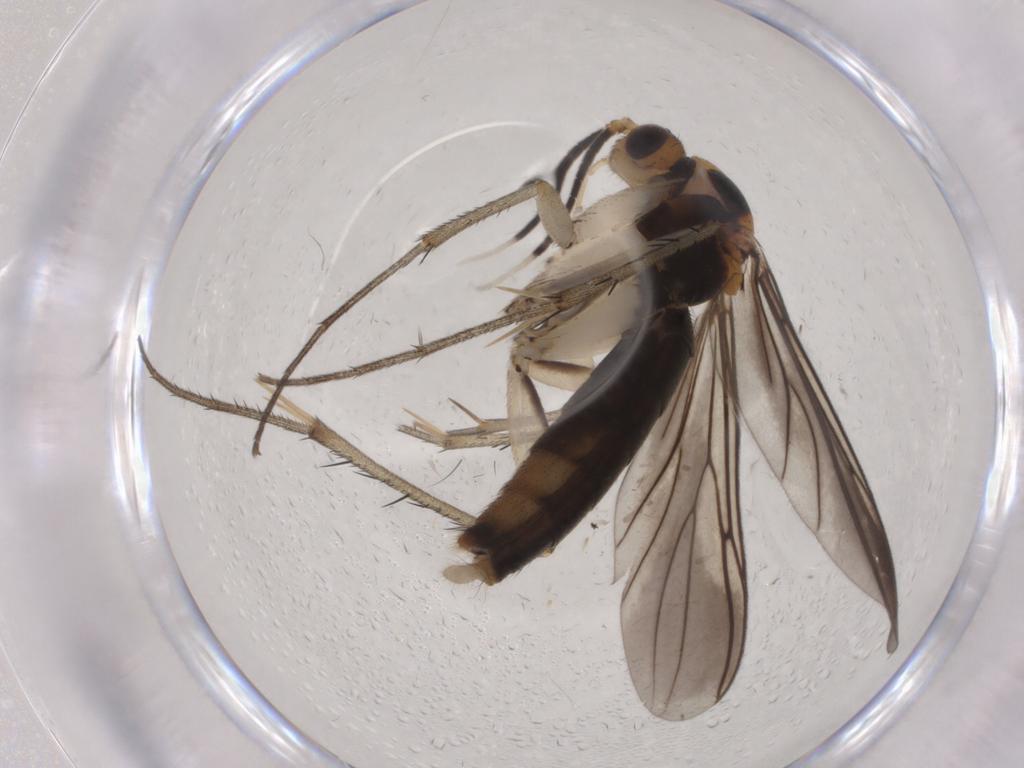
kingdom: Animalia
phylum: Arthropoda
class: Insecta
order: Diptera
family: Mycetophilidae
